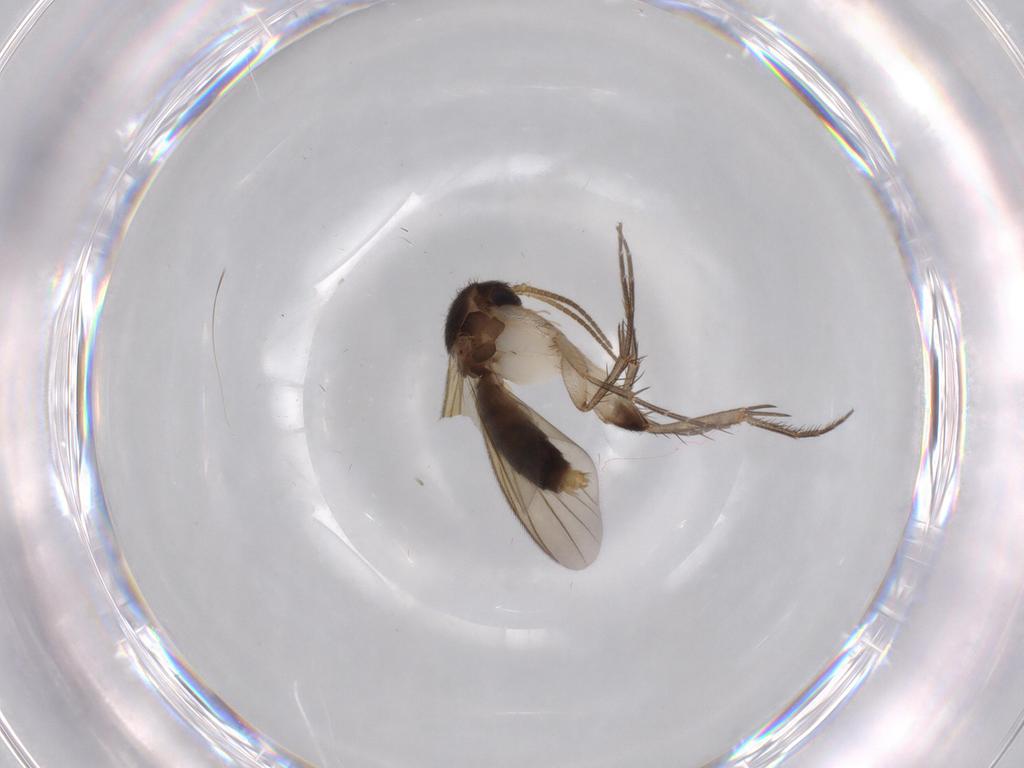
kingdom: Animalia
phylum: Arthropoda
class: Insecta
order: Diptera
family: Mycetophilidae
